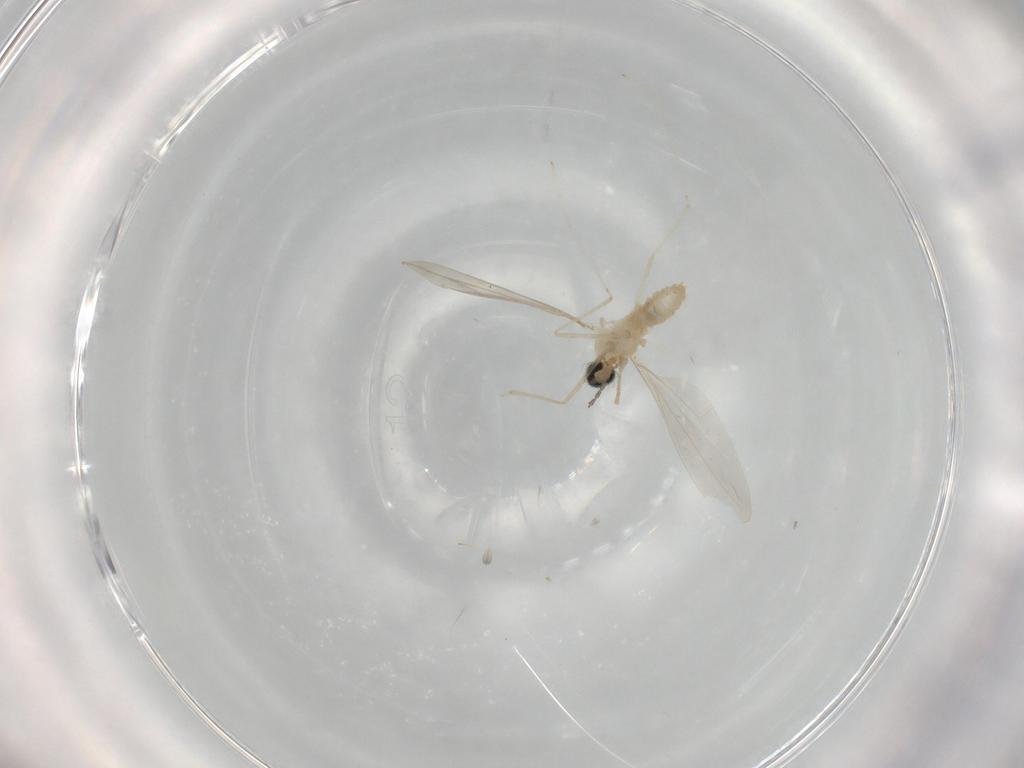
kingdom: Animalia
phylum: Arthropoda
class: Insecta
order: Diptera
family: Cecidomyiidae
